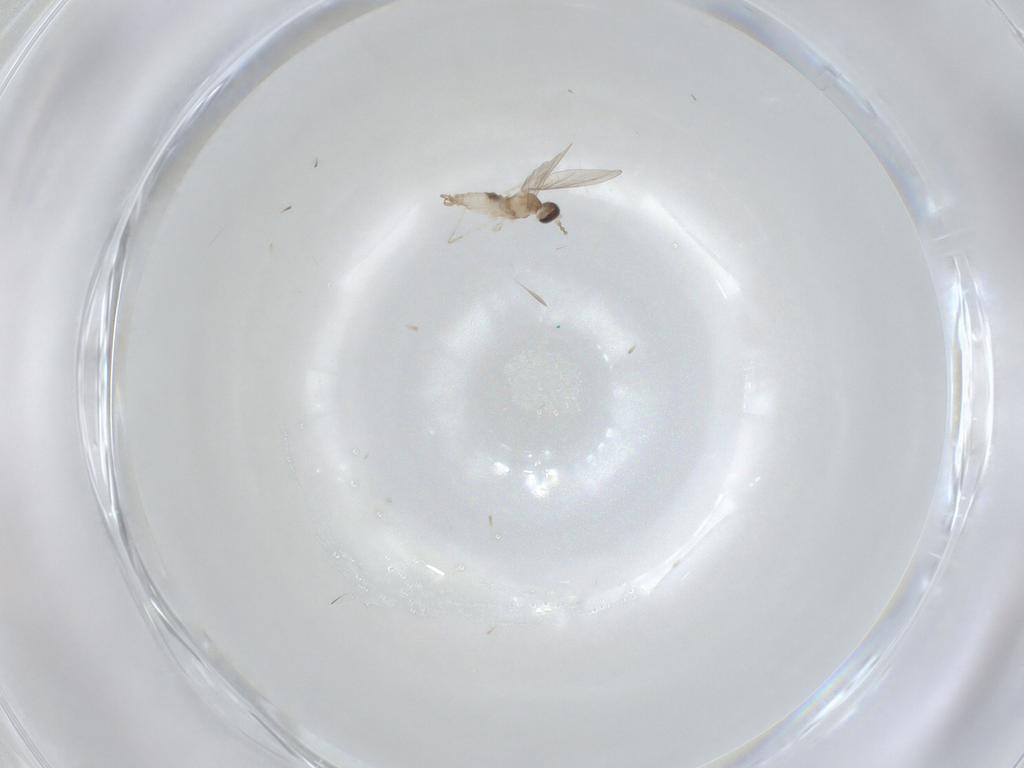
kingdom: Animalia
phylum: Arthropoda
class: Insecta
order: Diptera
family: Cecidomyiidae
